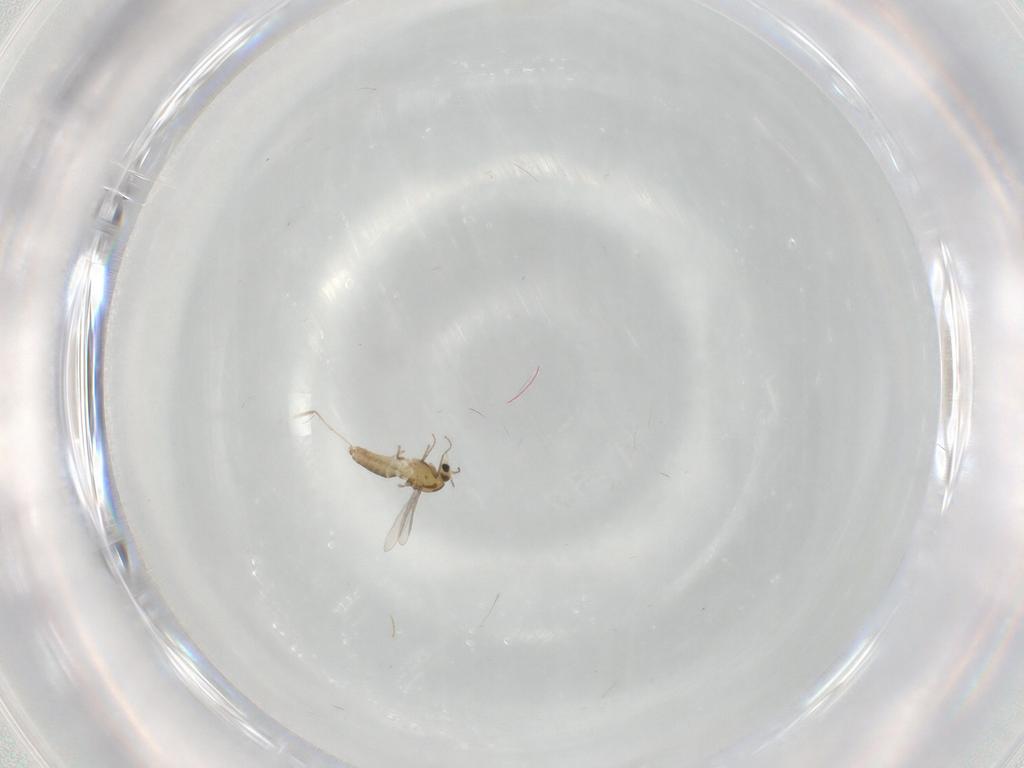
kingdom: Animalia
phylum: Arthropoda
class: Insecta
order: Diptera
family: Chironomidae
